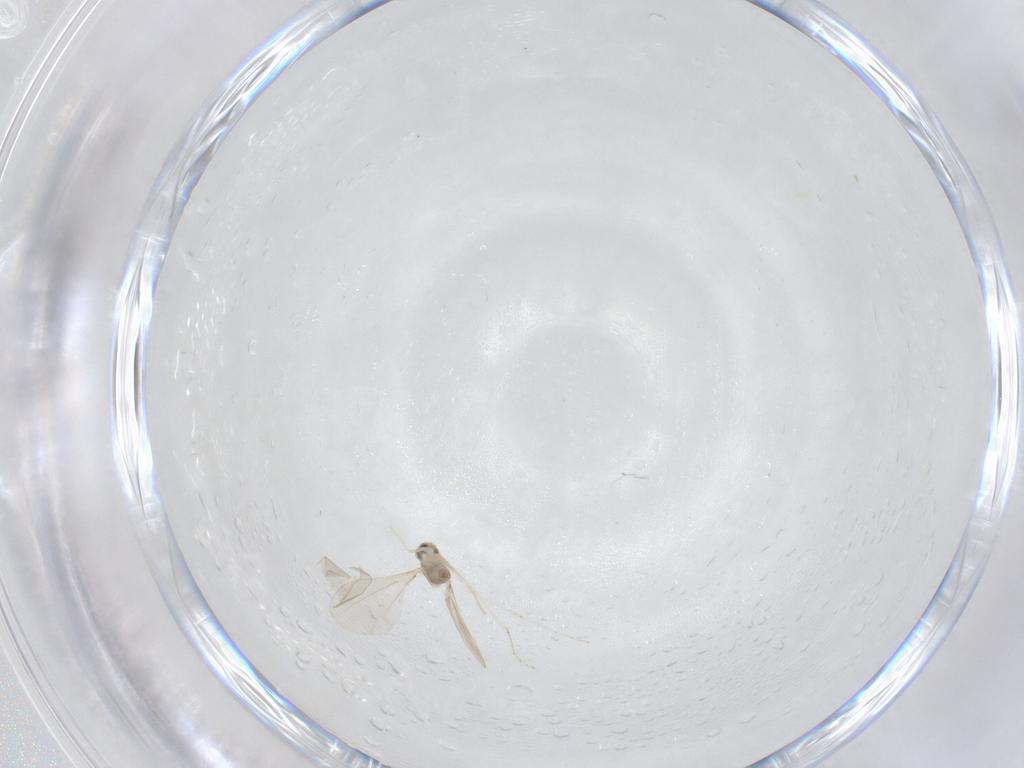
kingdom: Animalia
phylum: Arthropoda
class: Insecta
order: Diptera
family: Cecidomyiidae
